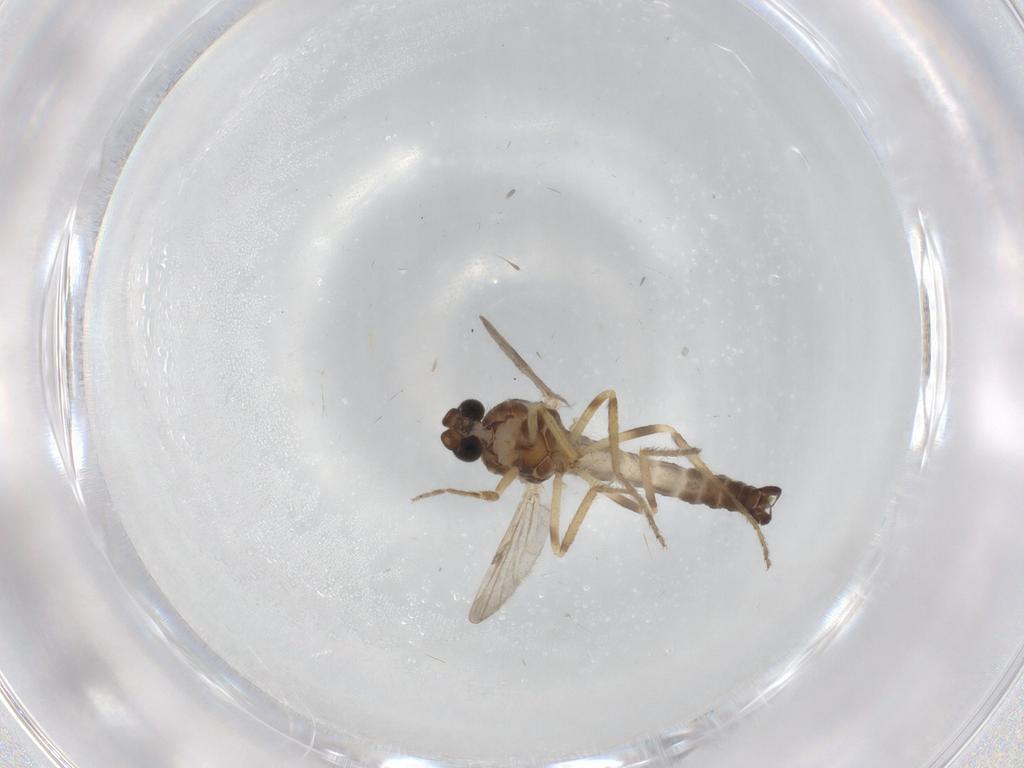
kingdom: Animalia
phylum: Arthropoda
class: Insecta
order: Diptera
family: Ceratopogonidae
